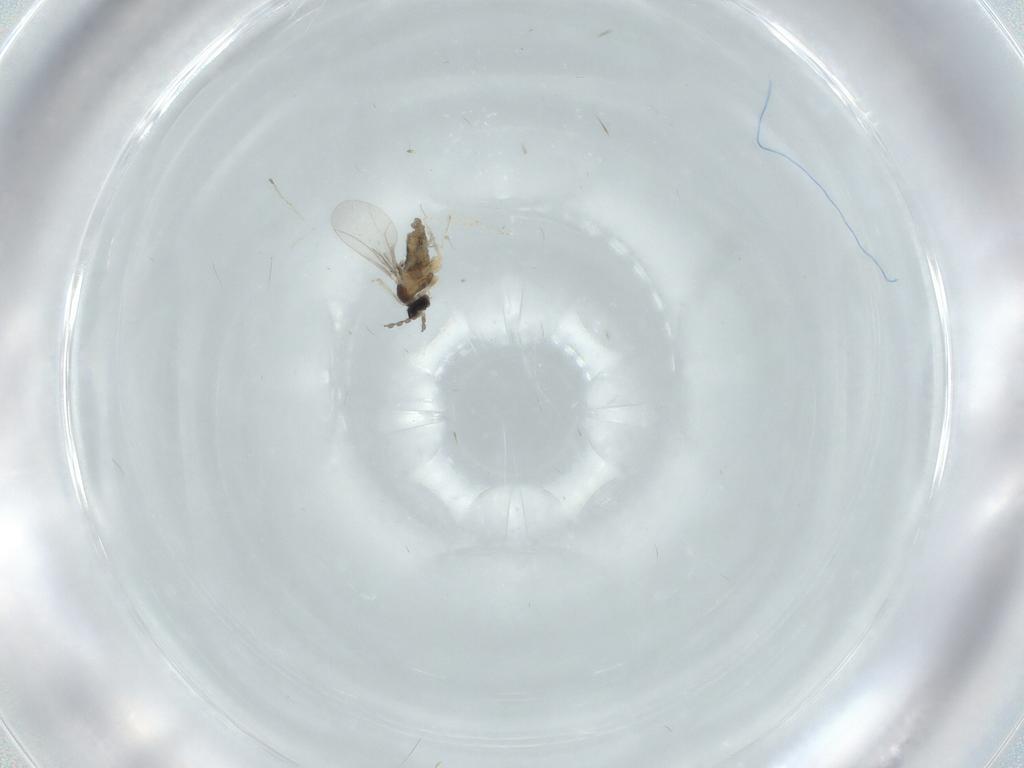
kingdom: Animalia
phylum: Arthropoda
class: Insecta
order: Diptera
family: Cecidomyiidae
